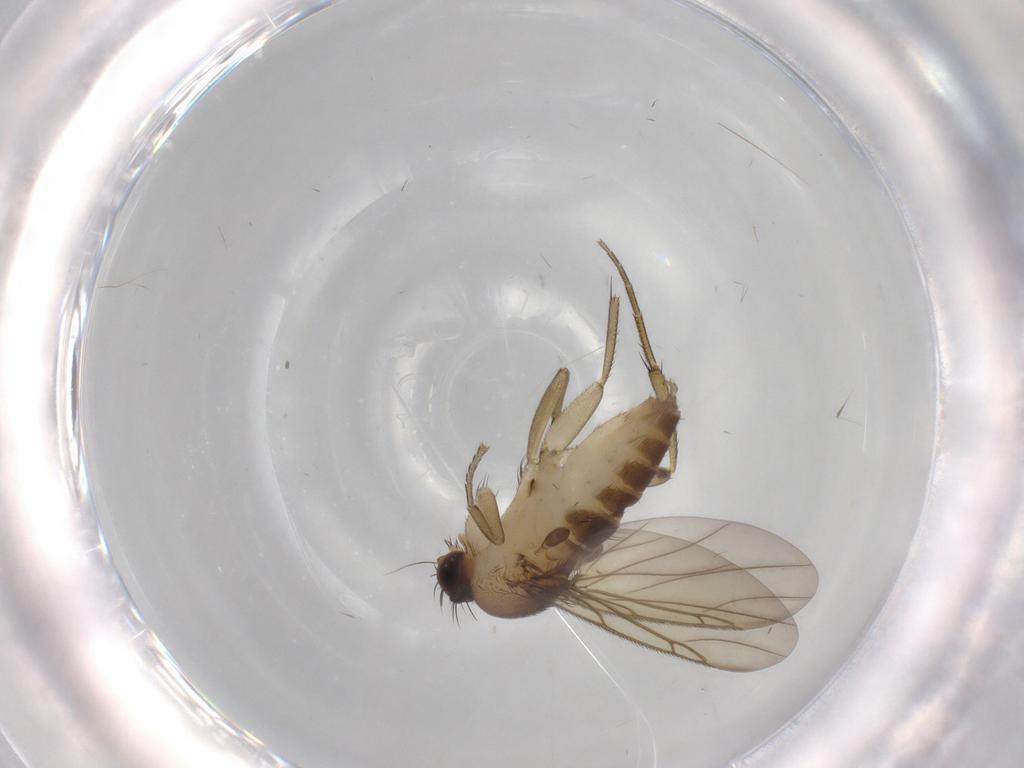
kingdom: Animalia
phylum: Arthropoda
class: Insecta
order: Diptera
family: Phoridae
